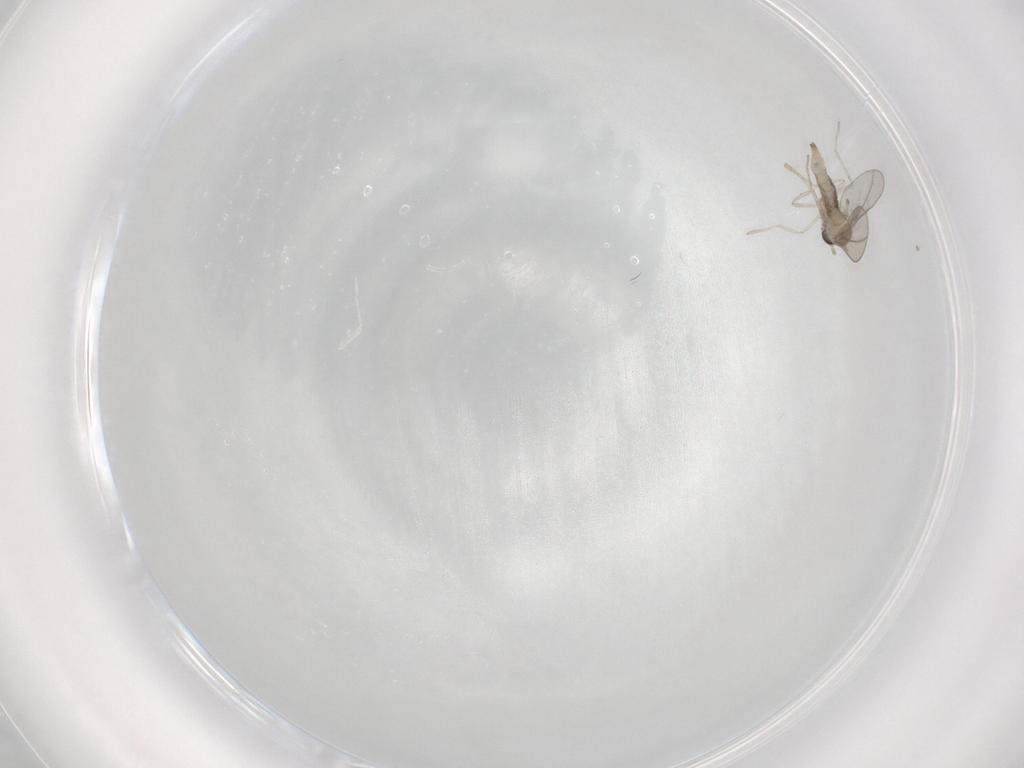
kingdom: Animalia
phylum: Arthropoda
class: Insecta
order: Diptera
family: Cecidomyiidae
